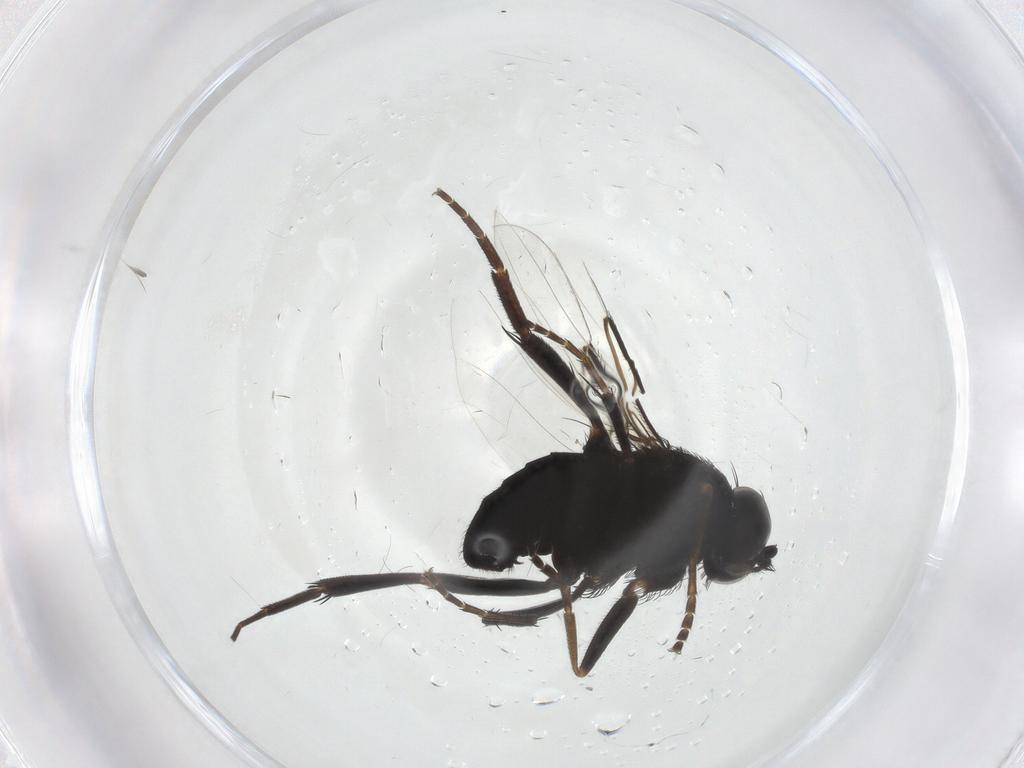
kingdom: Animalia
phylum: Arthropoda
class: Insecta
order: Diptera
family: Phoridae
